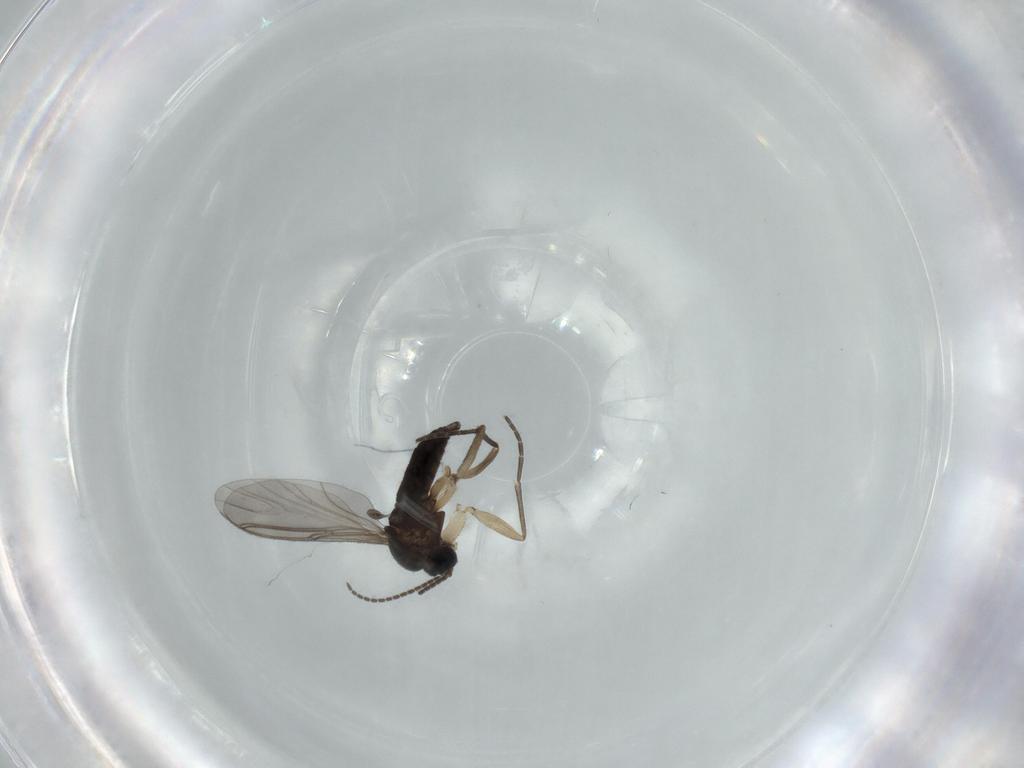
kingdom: Animalia
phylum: Arthropoda
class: Insecta
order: Diptera
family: Sciaridae
